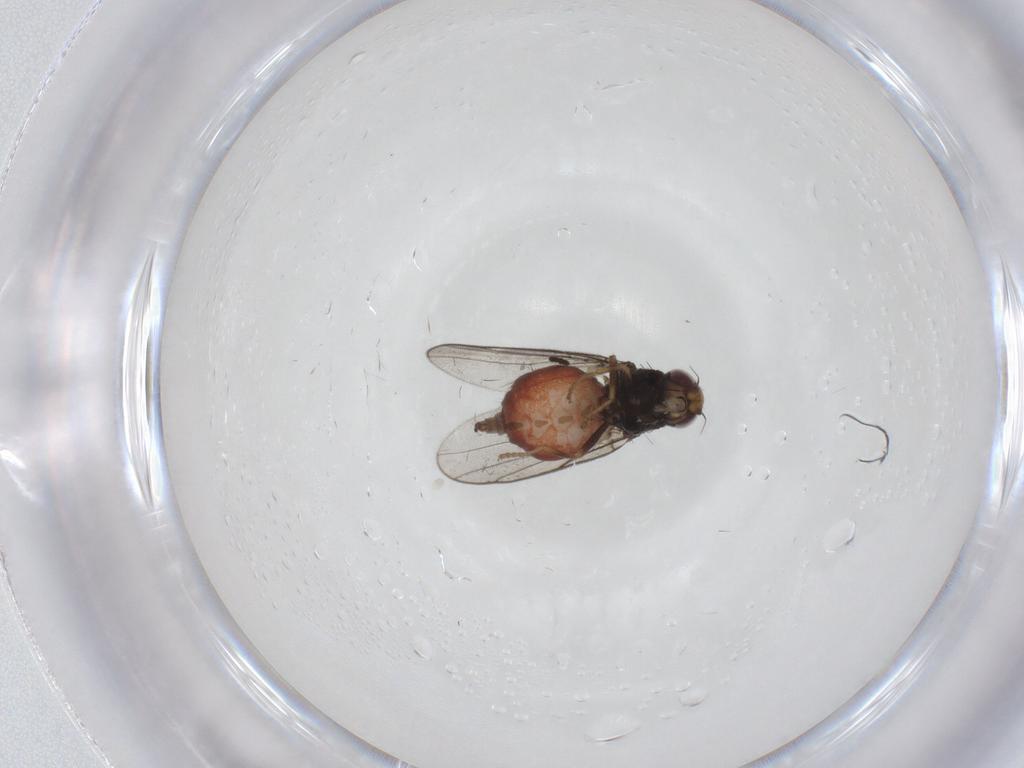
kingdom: Animalia
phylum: Arthropoda
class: Insecta
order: Diptera
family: Chloropidae
